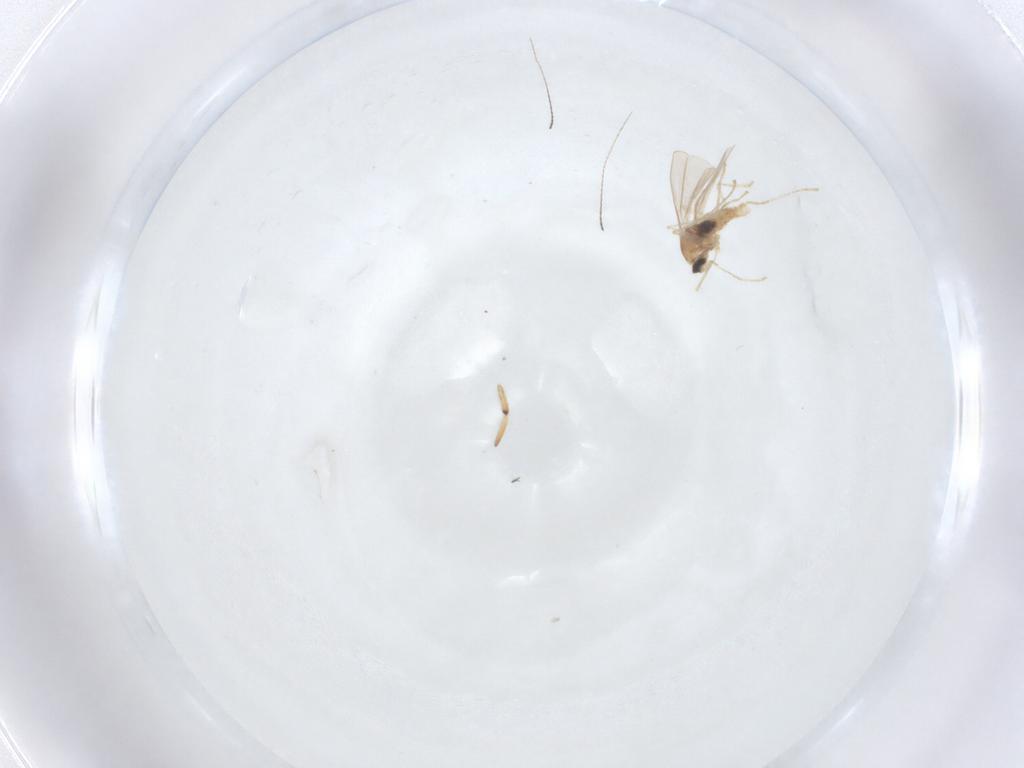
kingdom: Animalia
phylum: Arthropoda
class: Insecta
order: Diptera
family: Cecidomyiidae
